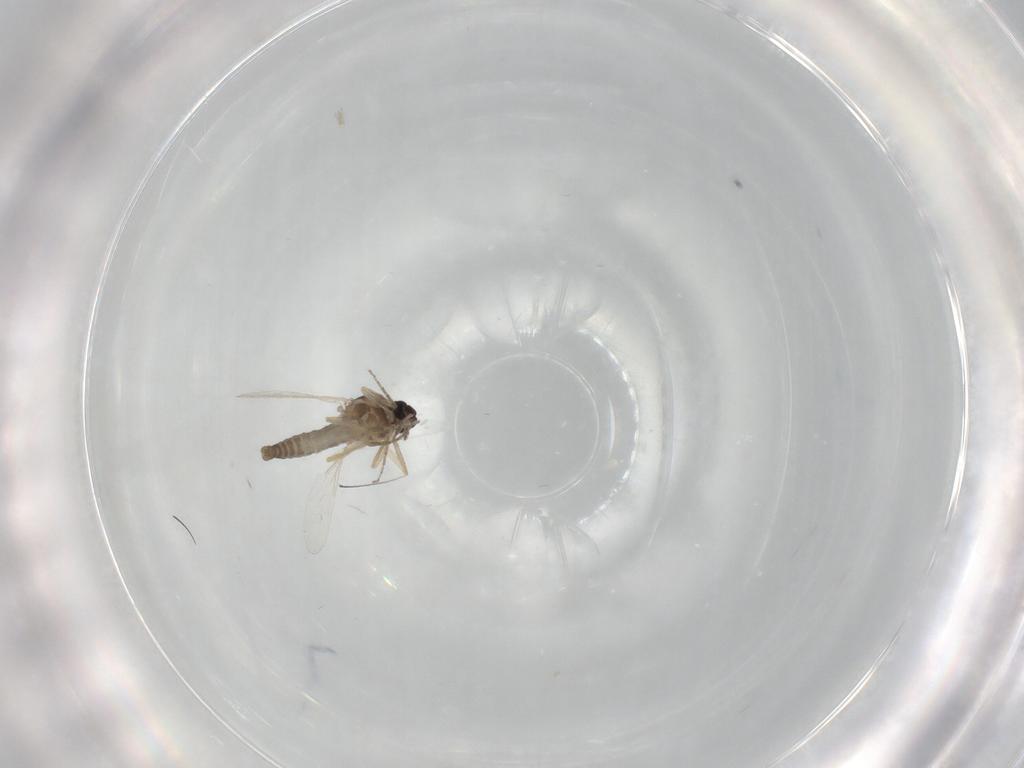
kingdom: Animalia
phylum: Arthropoda
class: Insecta
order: Diptera
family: Ceratopogonidae
